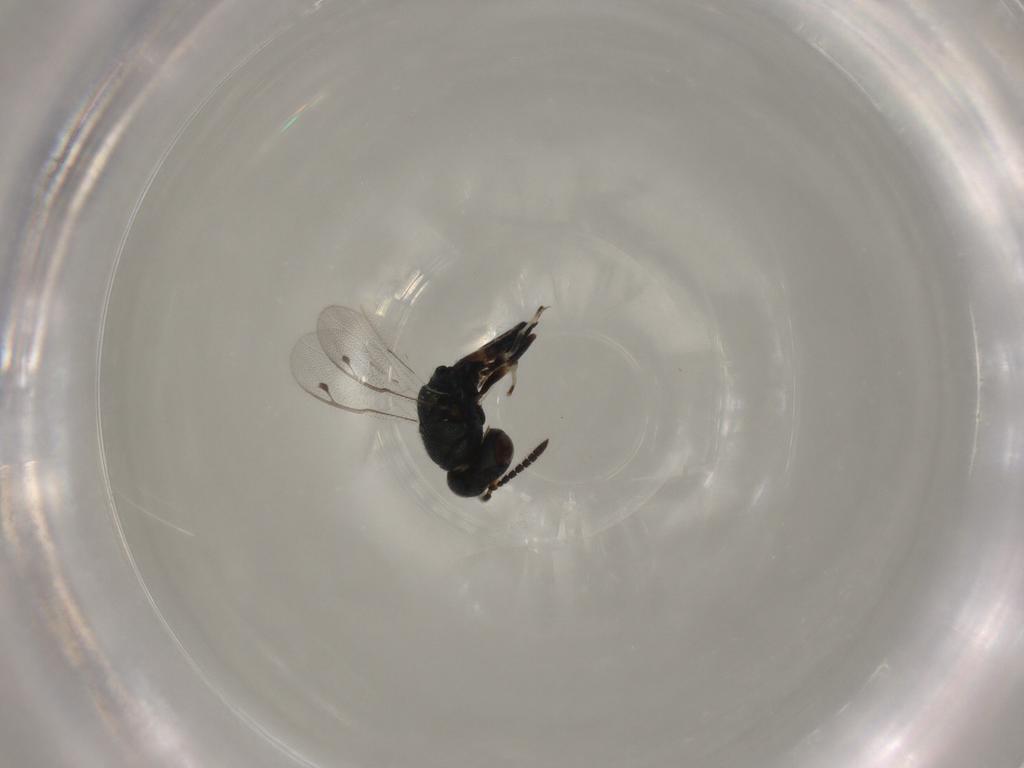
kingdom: Animalia
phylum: Arthropoda
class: Insecta
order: Hymenoptera
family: Pteromalidae
